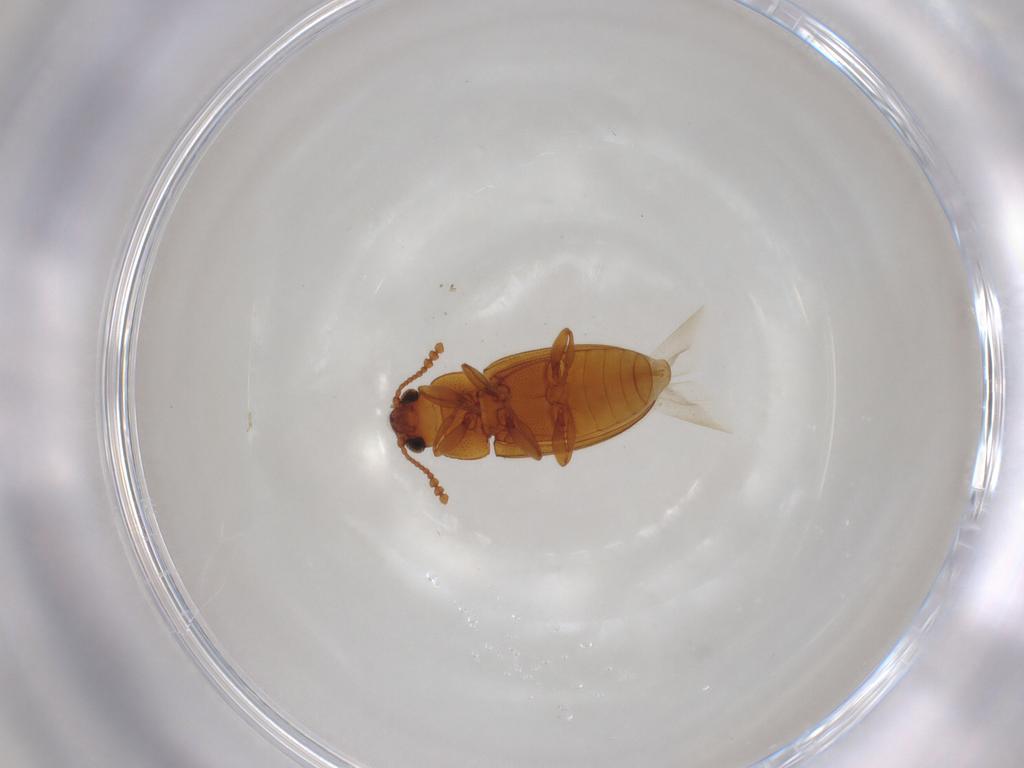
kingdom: Animalia
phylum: Arthropoda
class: Insecta
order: Coleoptera
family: Erotylidae
